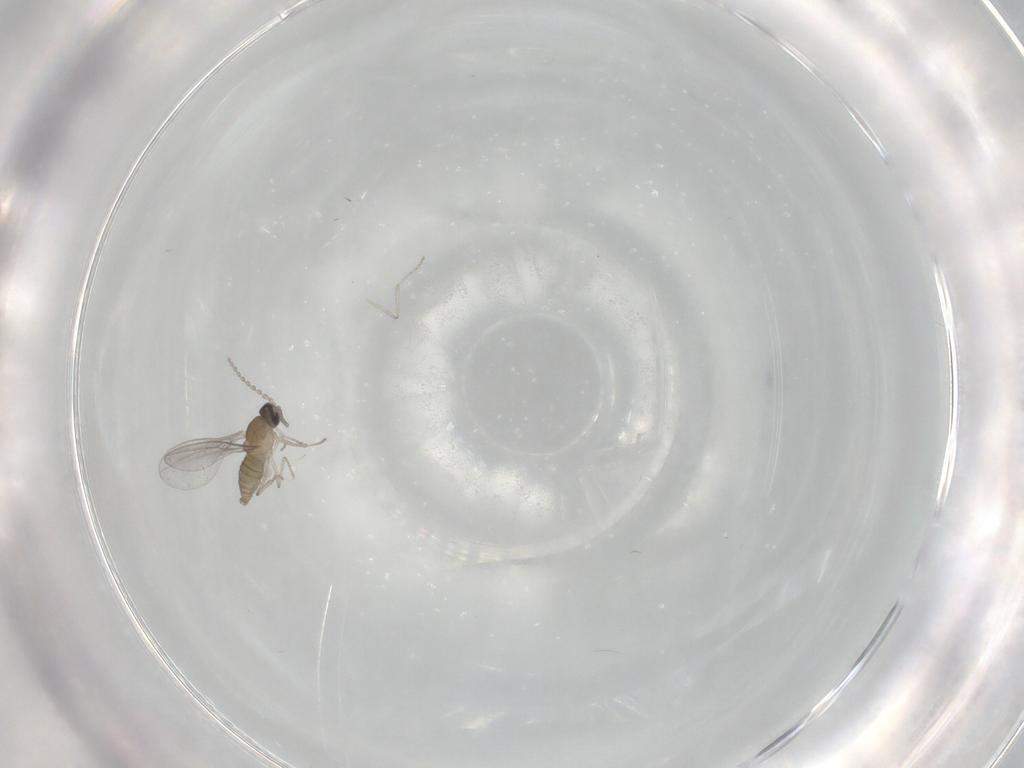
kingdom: Animalia
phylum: Arthropoda
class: Insecta
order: Diptera
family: Cecidomyiidae
